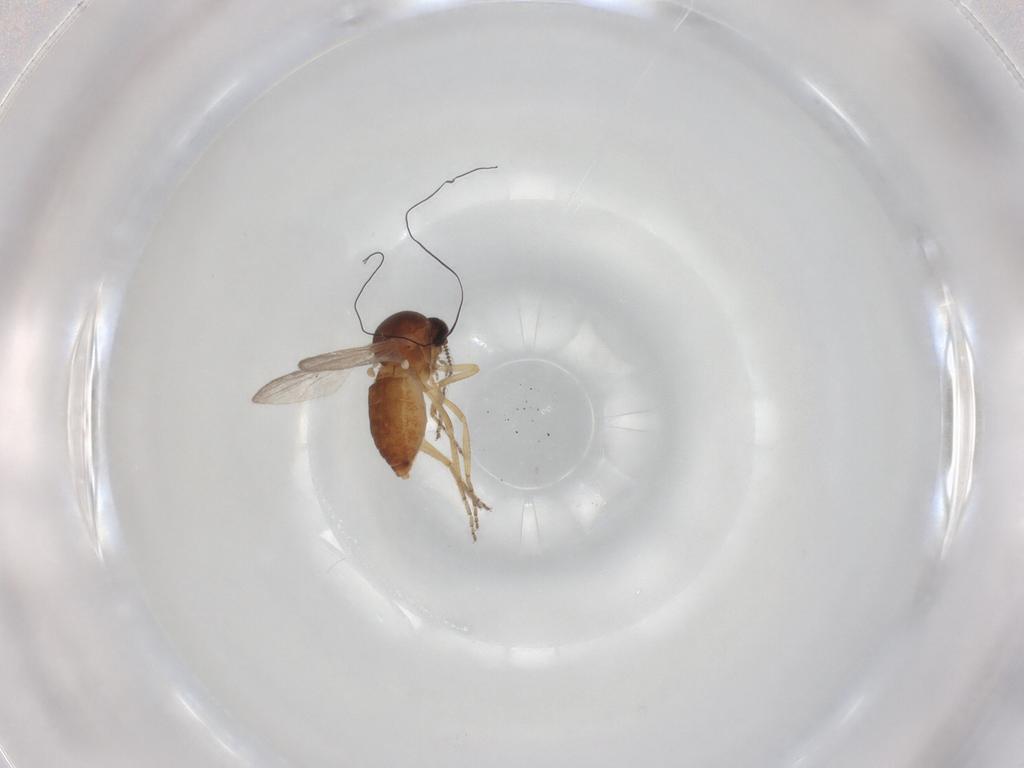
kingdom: Animalia
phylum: Arthropoda
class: Insecta
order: Diptera
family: Ceratopogonidae
